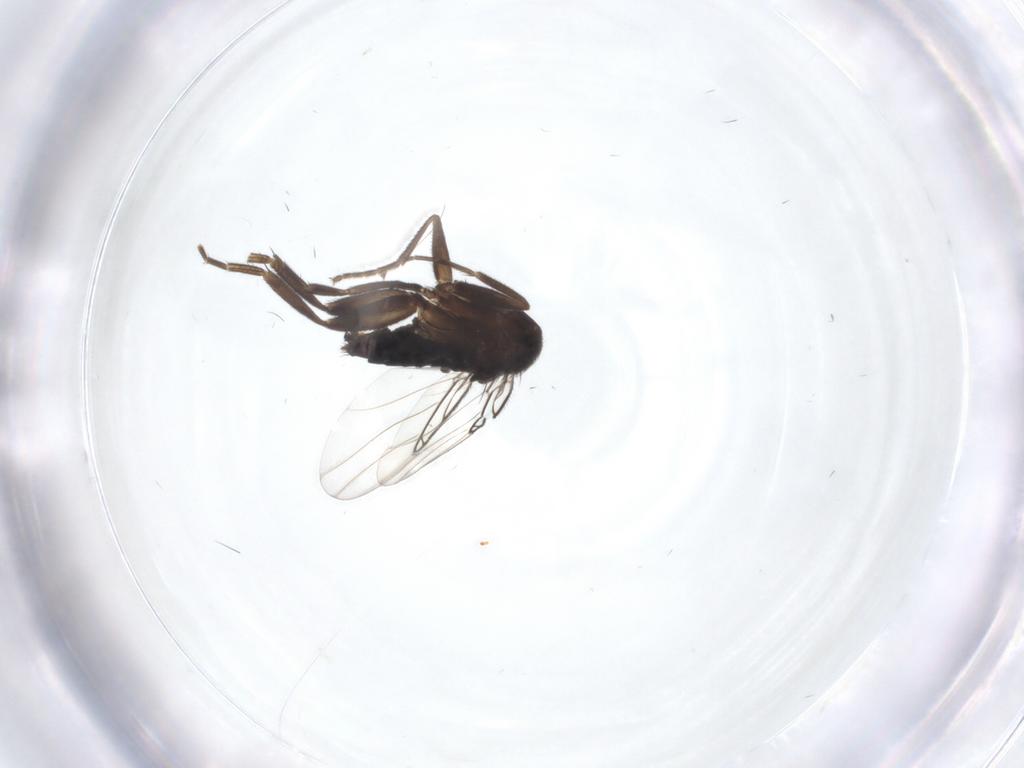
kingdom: Animalia
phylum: Arthropoda
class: Insecta
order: Diptera
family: Phoridae
